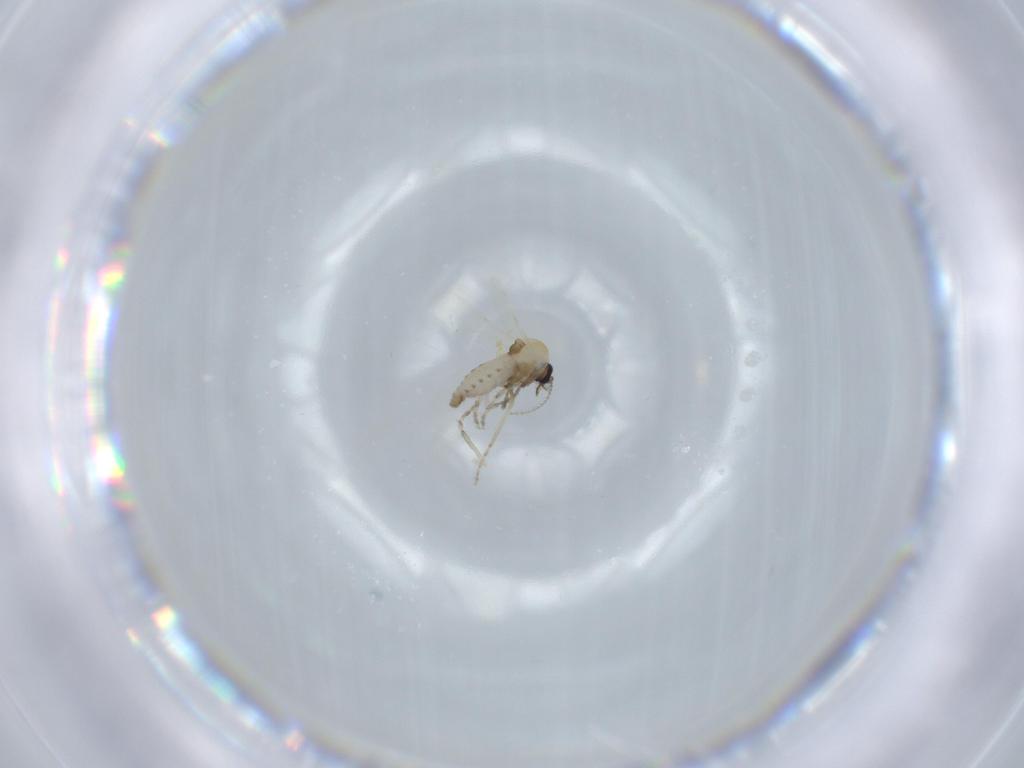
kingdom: Animalia
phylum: Arthropoda
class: Insecta
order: Diptera
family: Ceratopogonidae
